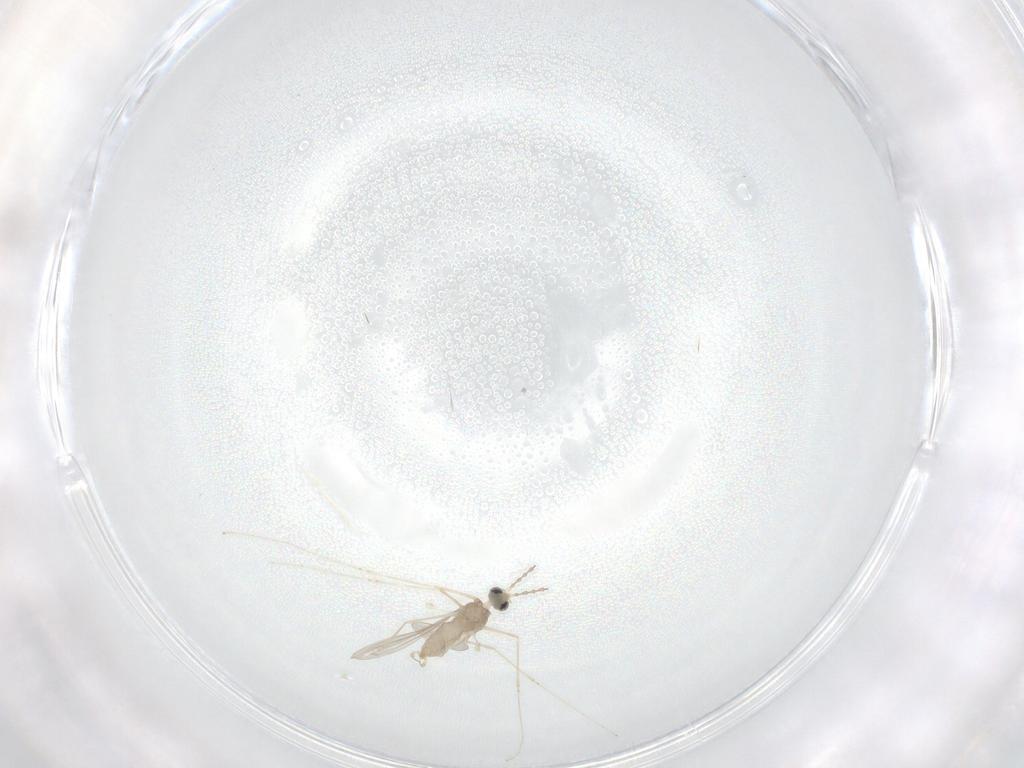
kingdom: Animalia
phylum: Arthropoda
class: Insecta
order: Diptera
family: Cecidomyiidae
